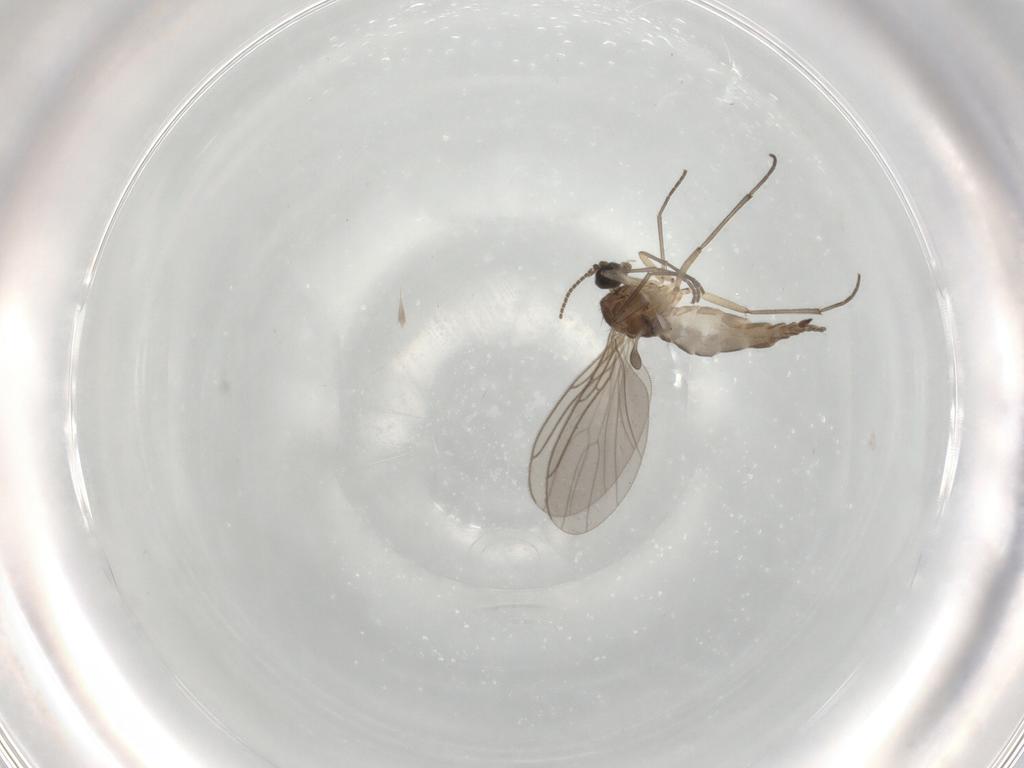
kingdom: Animalia
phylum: Arthropoda
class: Insecta
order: Diptera
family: Sciaridae
